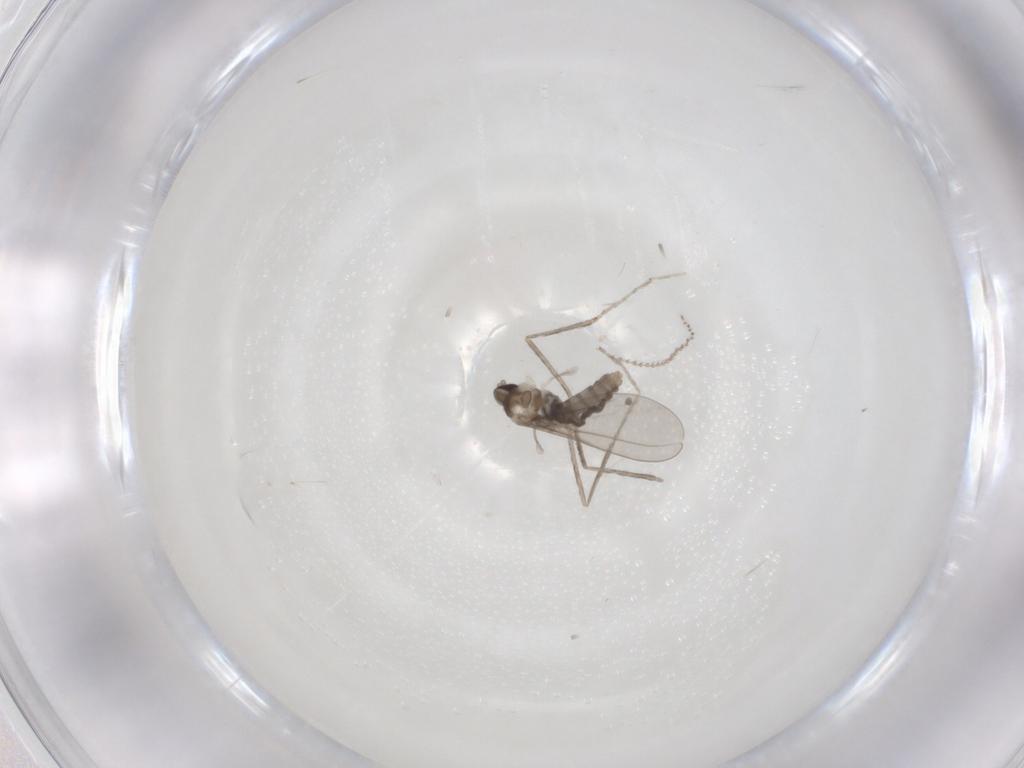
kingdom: Animalia
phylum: Arthropoda
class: Insecta
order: Diptera
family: Cecidomyiidae
